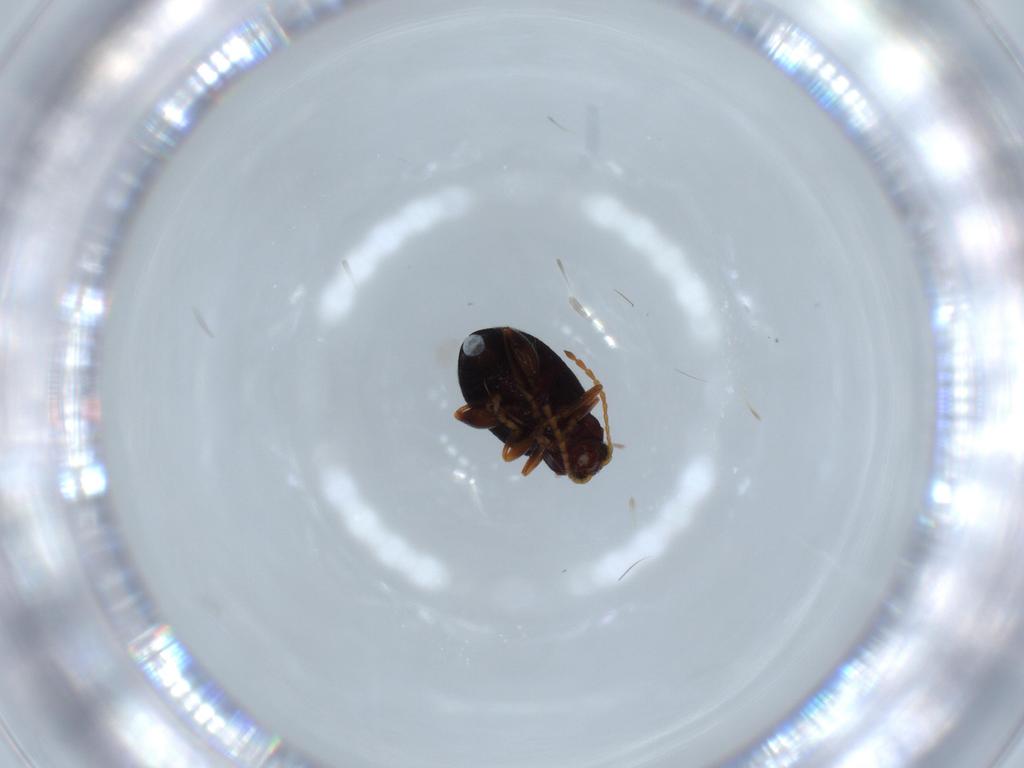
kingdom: Animalia
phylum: Arthropoda
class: Insecta
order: Coleoptera
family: Chrysomelidae
